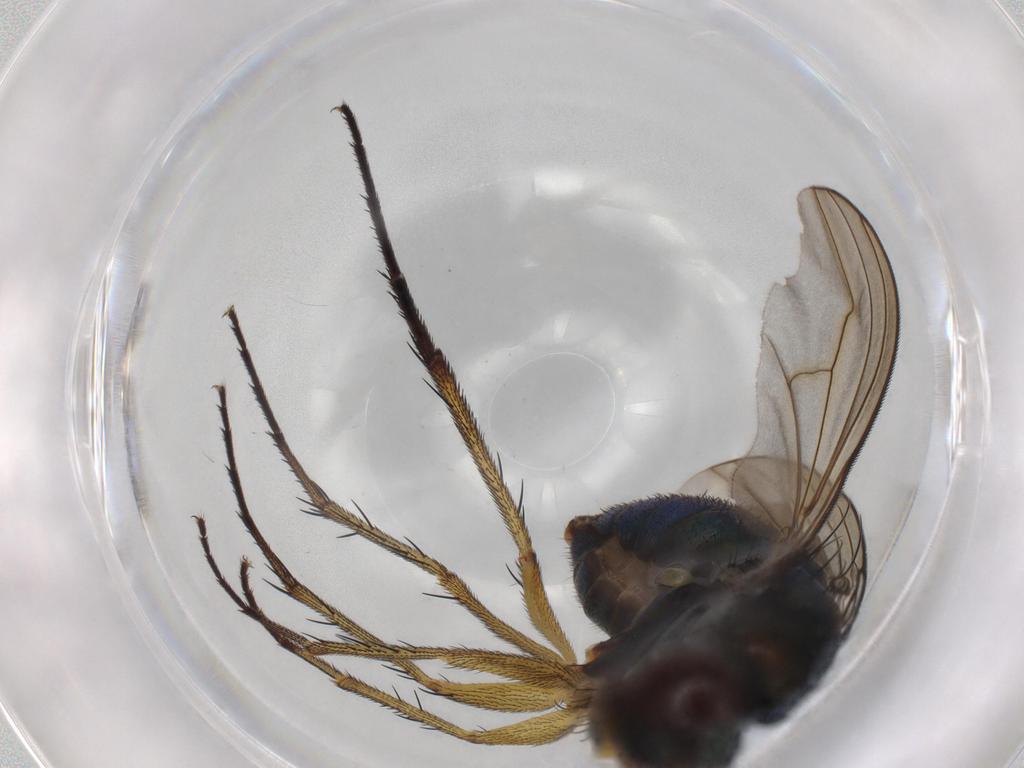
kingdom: Animalia
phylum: Arthropoda
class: Insecta
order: Diptera
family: Dolichopodidae
